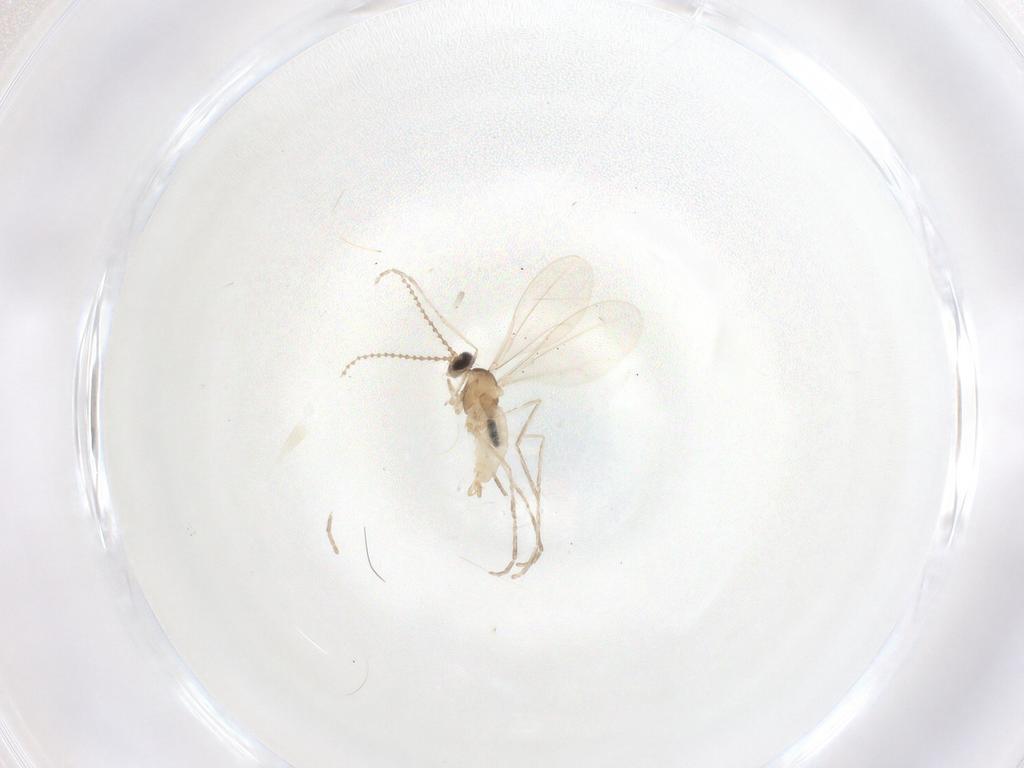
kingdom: Animalia
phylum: Arthropoda
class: Insecta
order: Diptera
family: Cecidomyiidae
